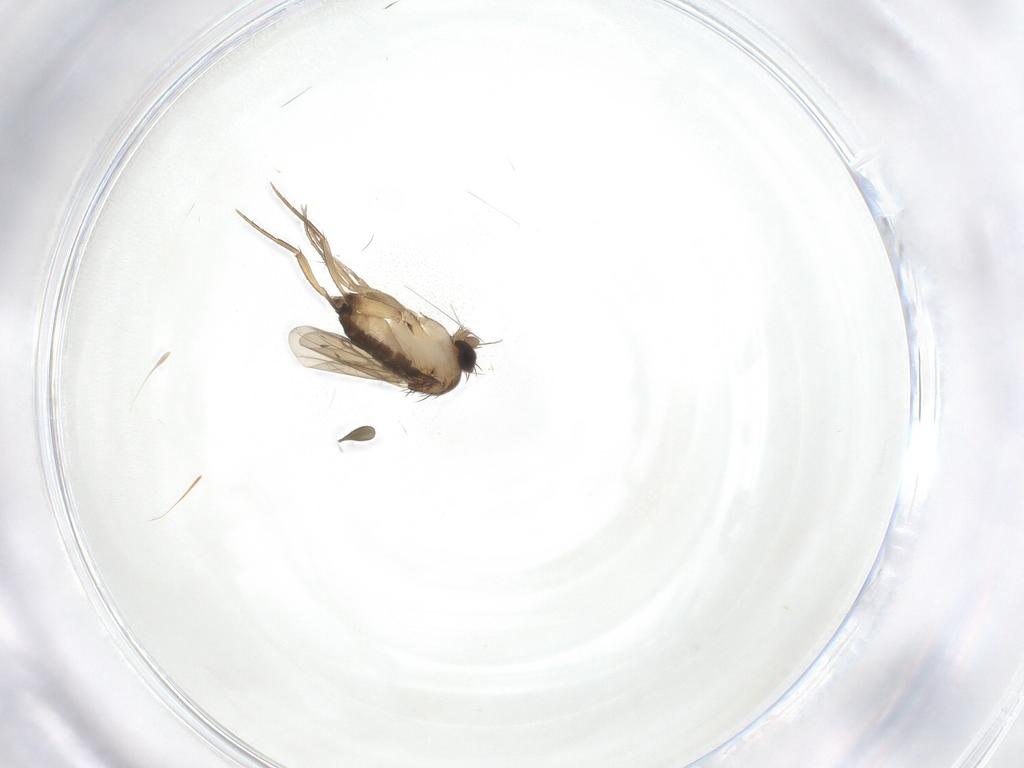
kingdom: Animalia
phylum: Arthropoda
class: Insecta
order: Diptera
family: Phoridae
